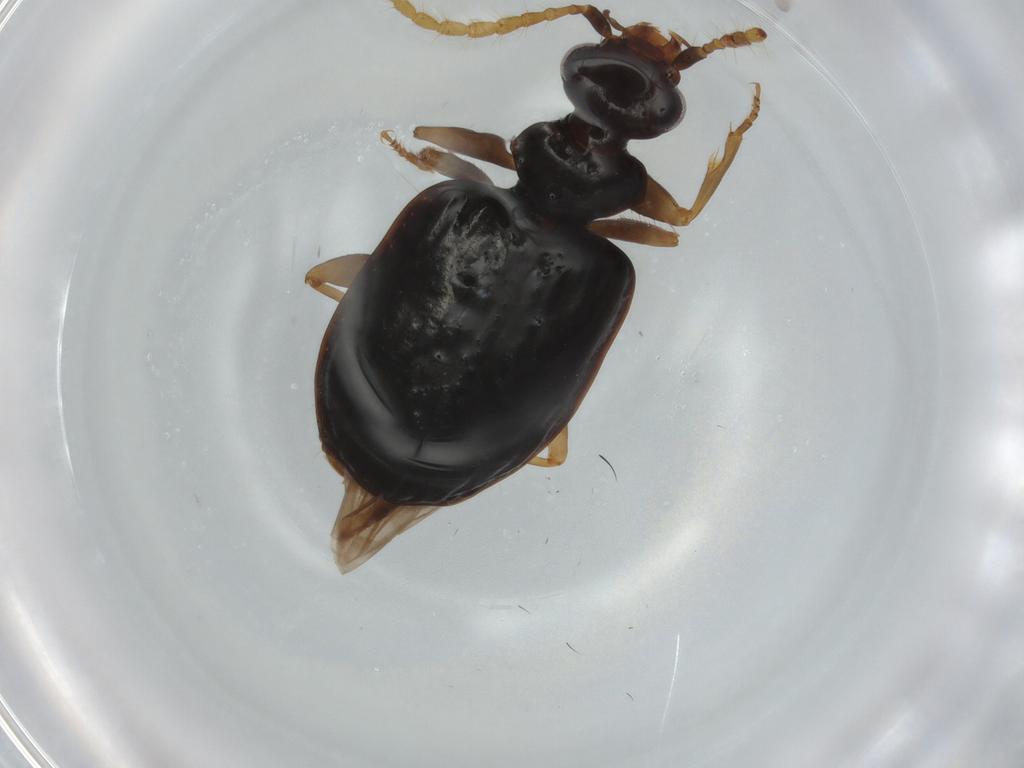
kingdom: Animalia
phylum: Arthropoda
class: Insecta
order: Coleoptera
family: Carabidae
